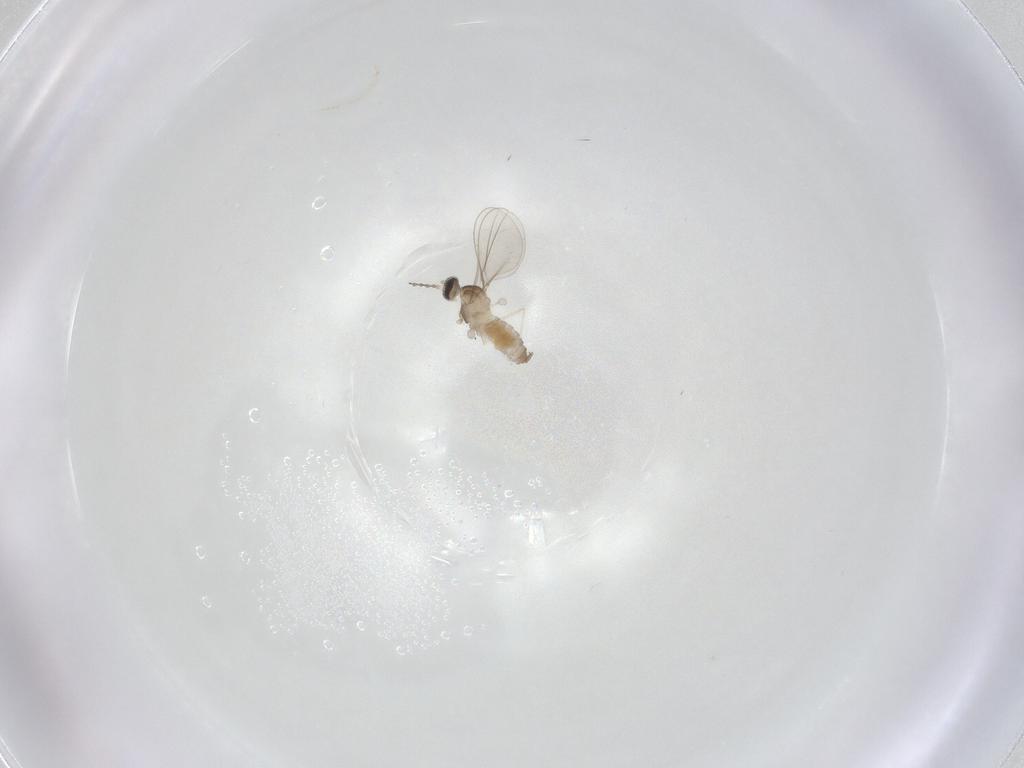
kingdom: Animalia
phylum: Arthropoda
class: Insecta
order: Diptera
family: Cecidomyiidae
